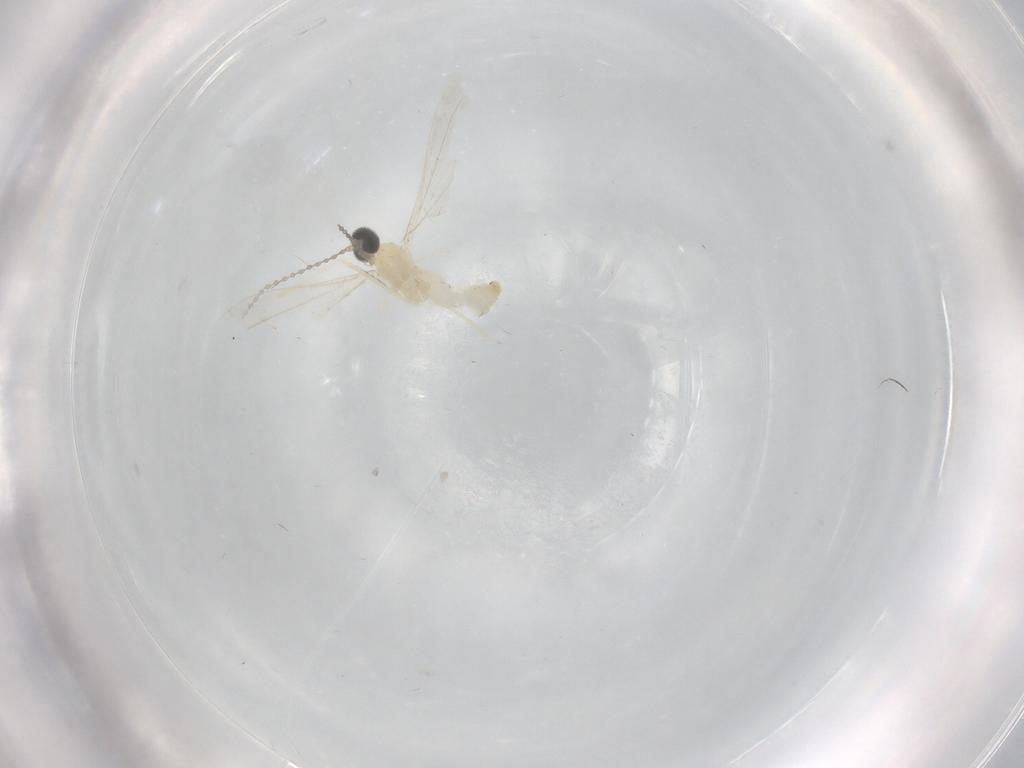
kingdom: Animalia
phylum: Arthropoda
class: Insecta
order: Diptera
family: Cecidomyiidae
